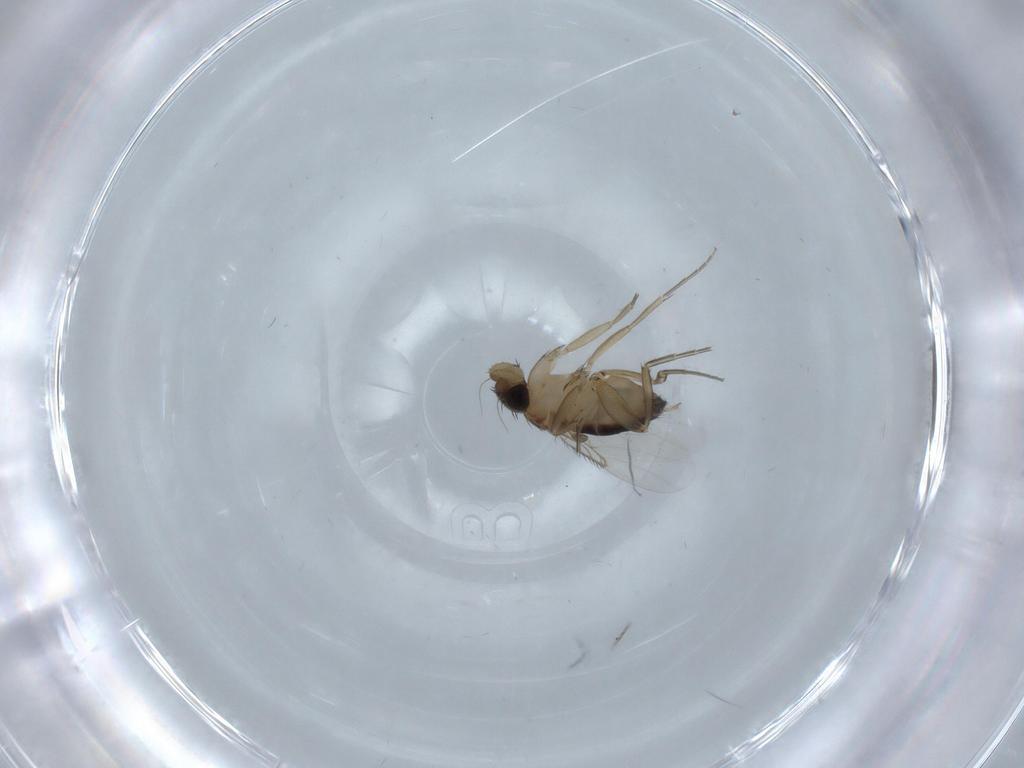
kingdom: Animalia
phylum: Arthropoda
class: Insecta
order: Diptera
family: Chironomidae
